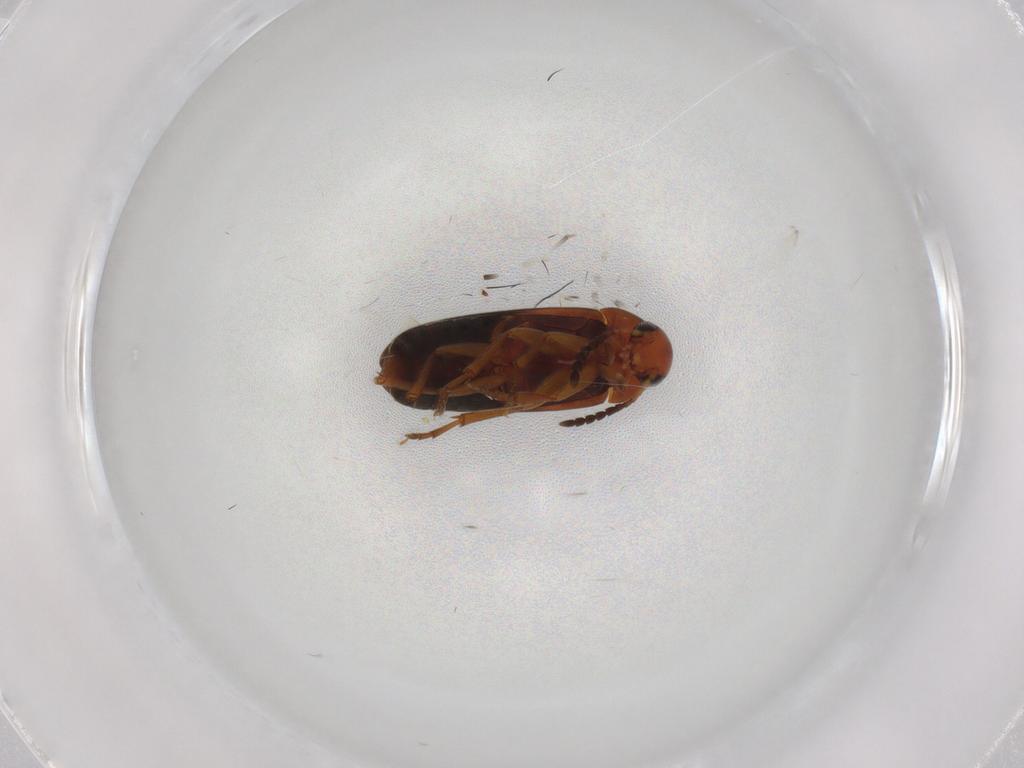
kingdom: Animalia
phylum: Arthropoda
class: Insecta
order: Coleoptera
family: Scraptiidae
